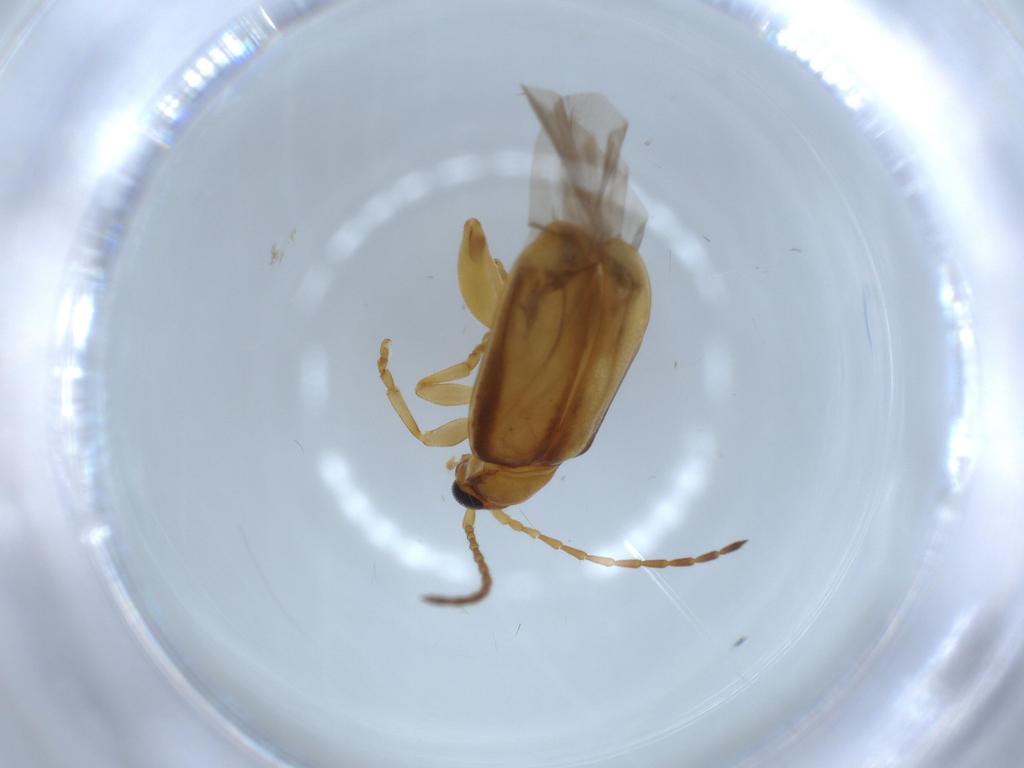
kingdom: Animalia
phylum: Arthropoda
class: Insecta
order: Coleoptera
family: Chrysomelidae
